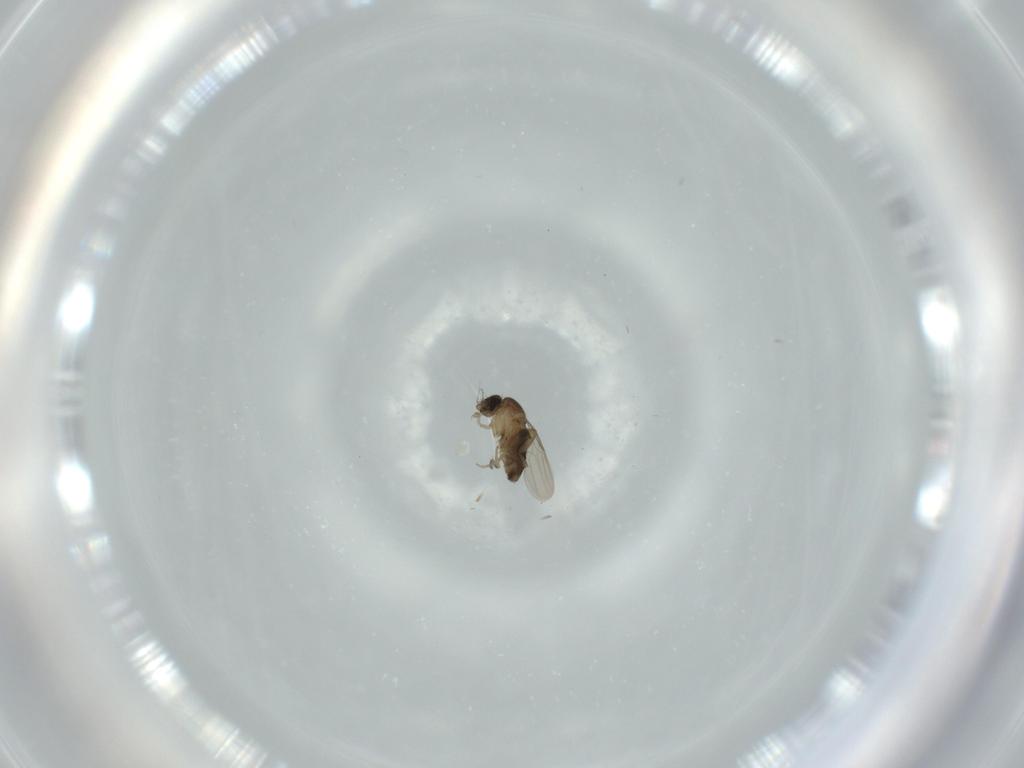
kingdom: Animalia
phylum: Arthropoda
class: Insecta
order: Diptera
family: Phoridae
